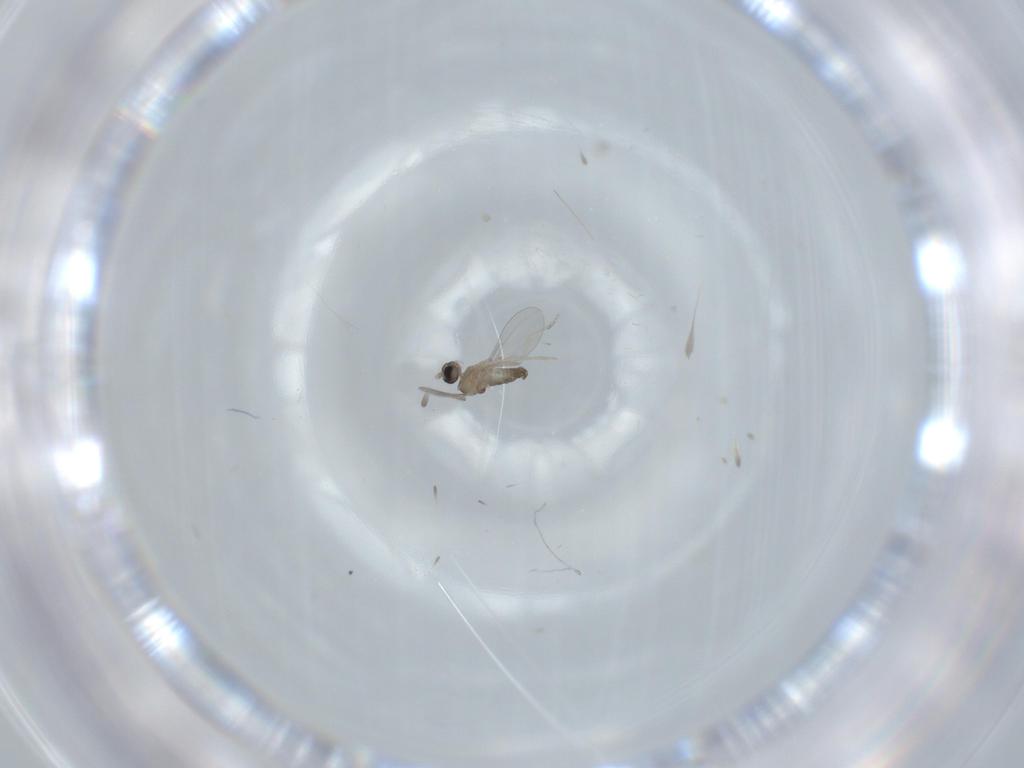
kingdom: Animalia
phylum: Arthropoda
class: Insecta
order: Diptera
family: Cecidomyiidae
